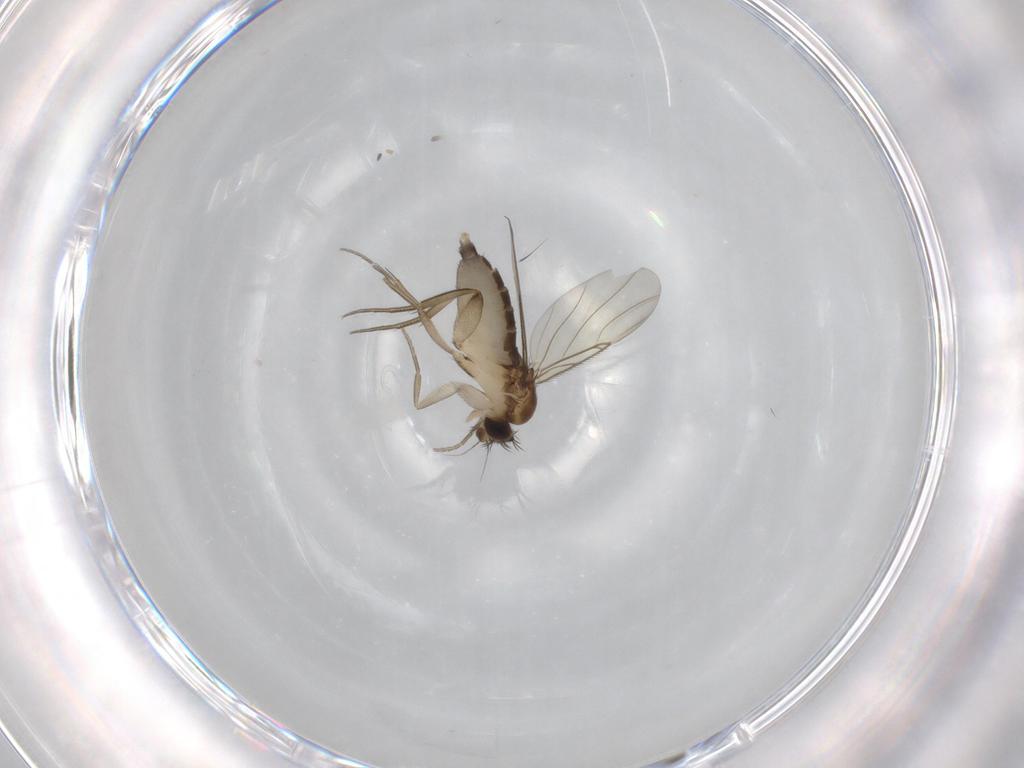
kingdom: Animalia
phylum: Arthropoda
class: Insecta
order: Diptera
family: Phoridae
